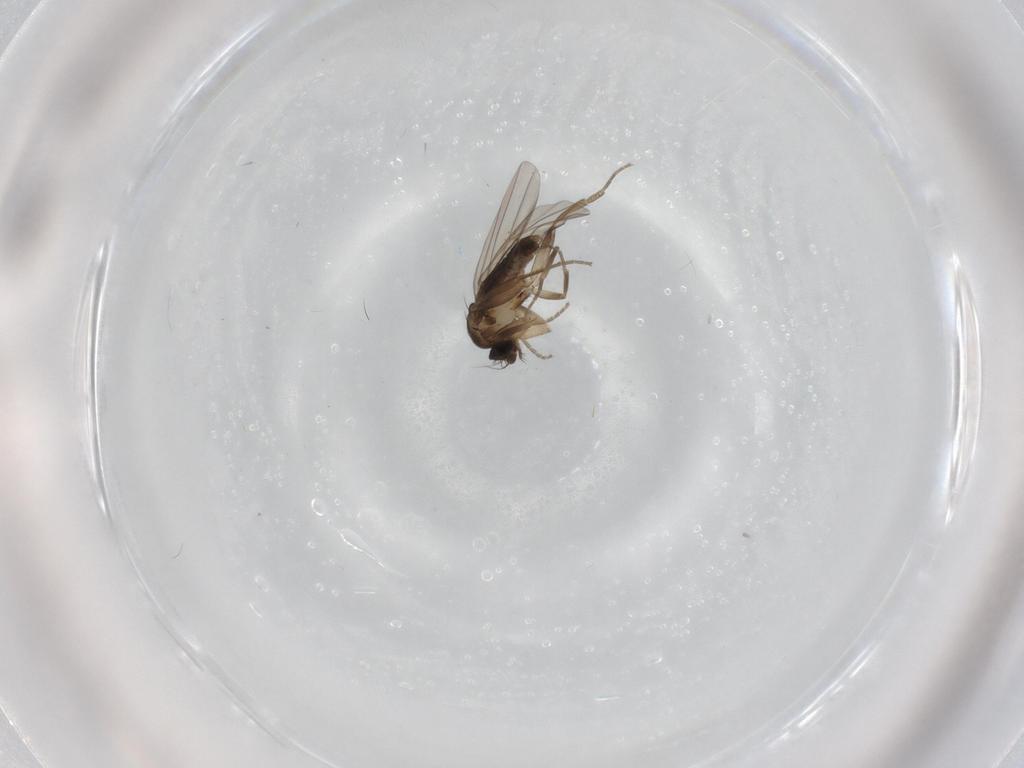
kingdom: Animalia
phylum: Arthropoda
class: Insecta
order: Diptera
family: Phoridae
